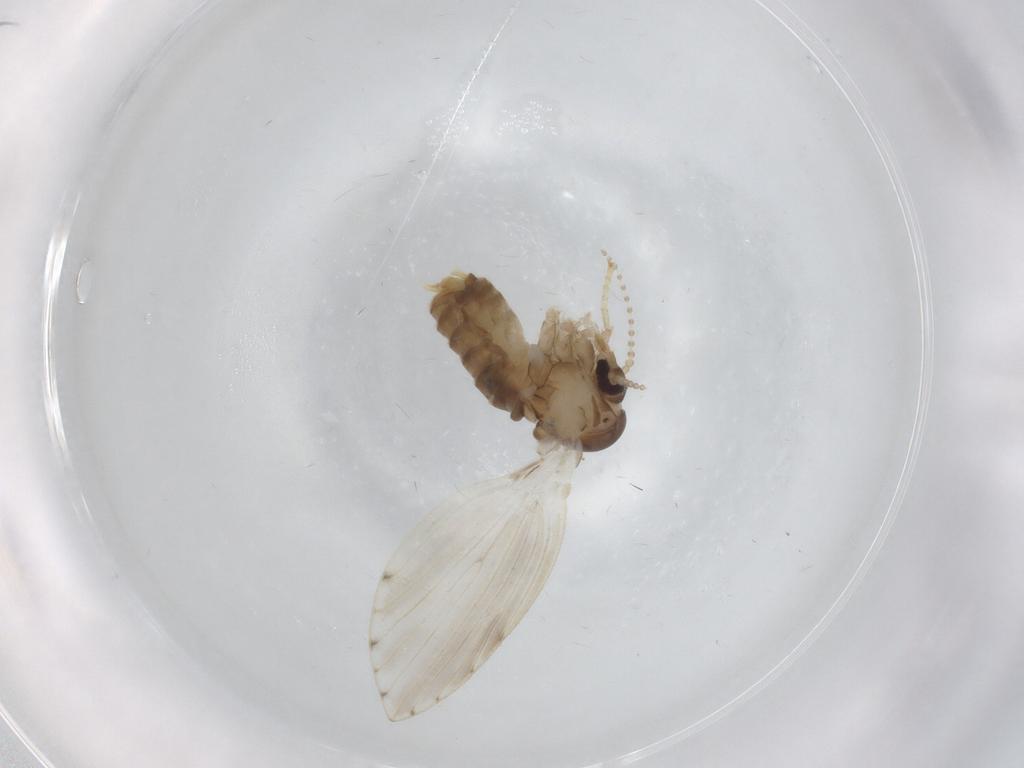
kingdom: Animalia
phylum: Arthropoda
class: Insecta
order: Diptera
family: Hybotidae
